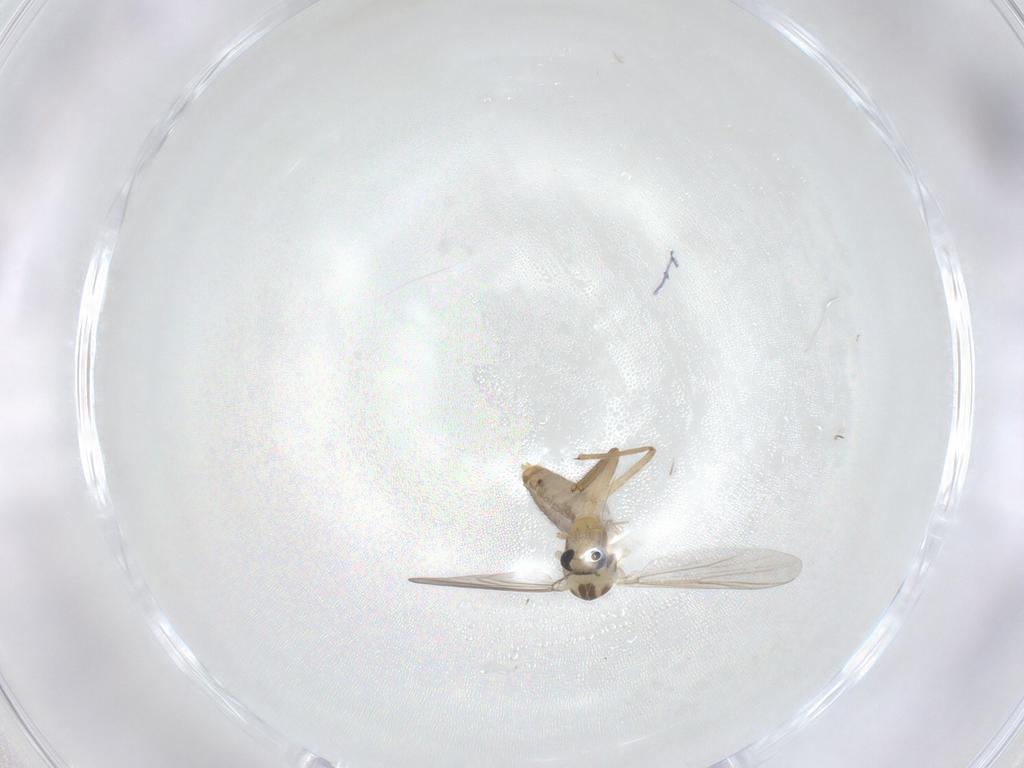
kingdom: Animalia
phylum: Arthropoda
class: Insecta
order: Diptera
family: Chironomidae
